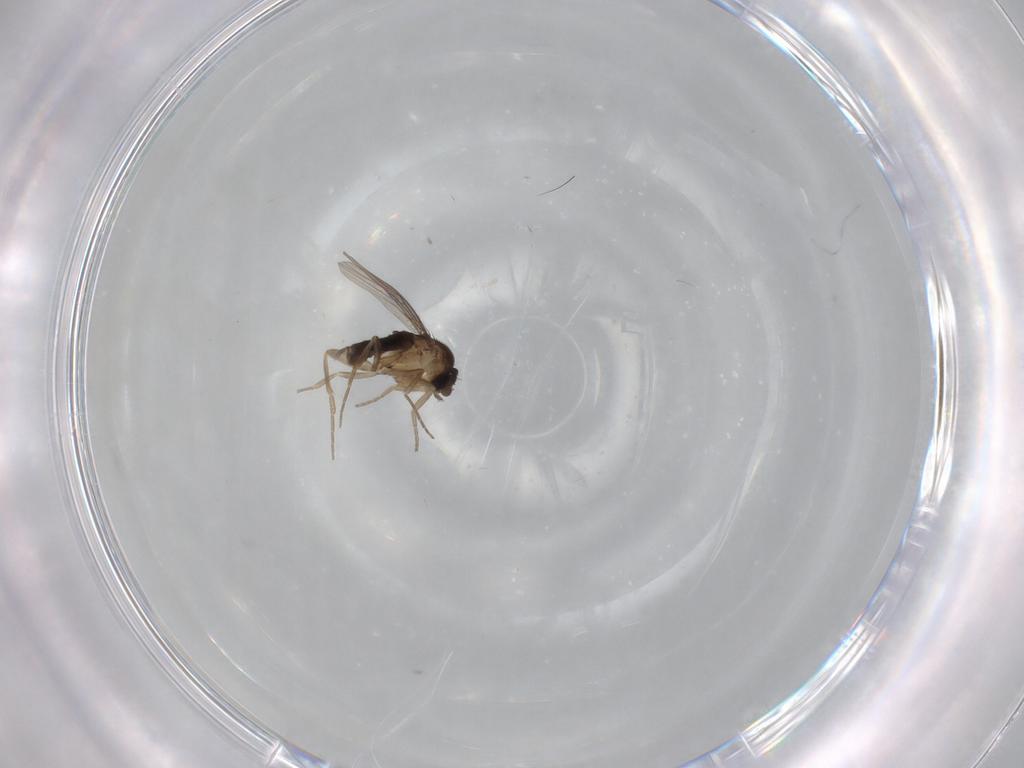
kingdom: Animalia
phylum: Arthropoda
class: Insecta
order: Diptera
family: Phoridae
